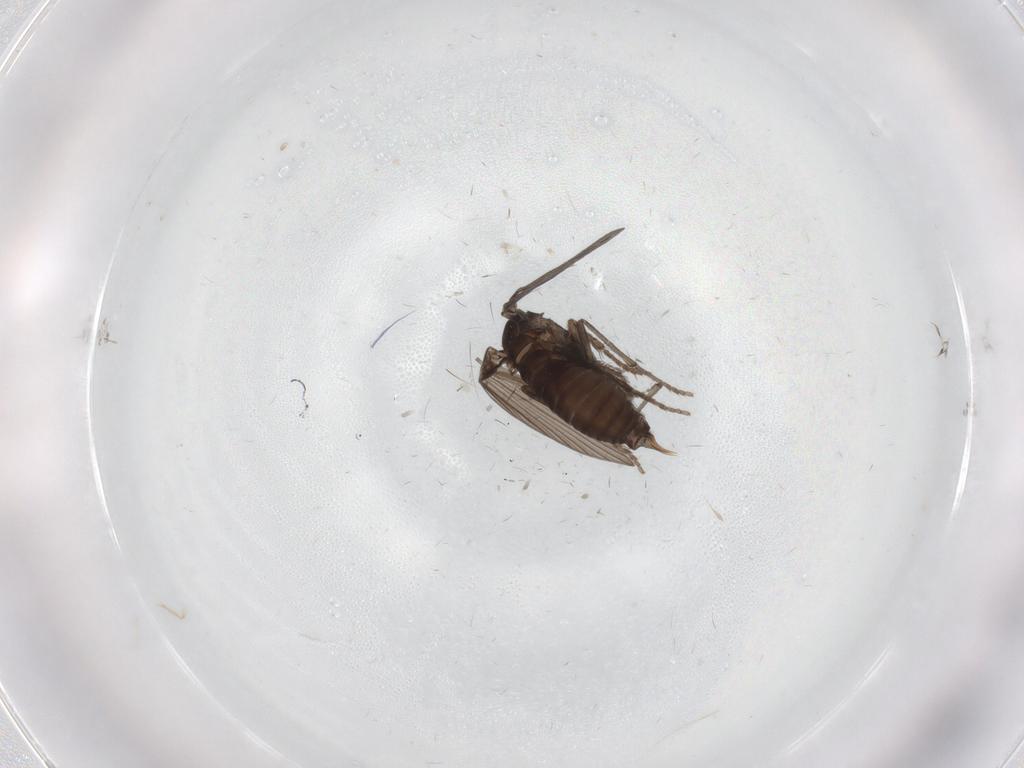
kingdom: Animalia
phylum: Arthropoda
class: Insecta
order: Diptera
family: Psychodidae
